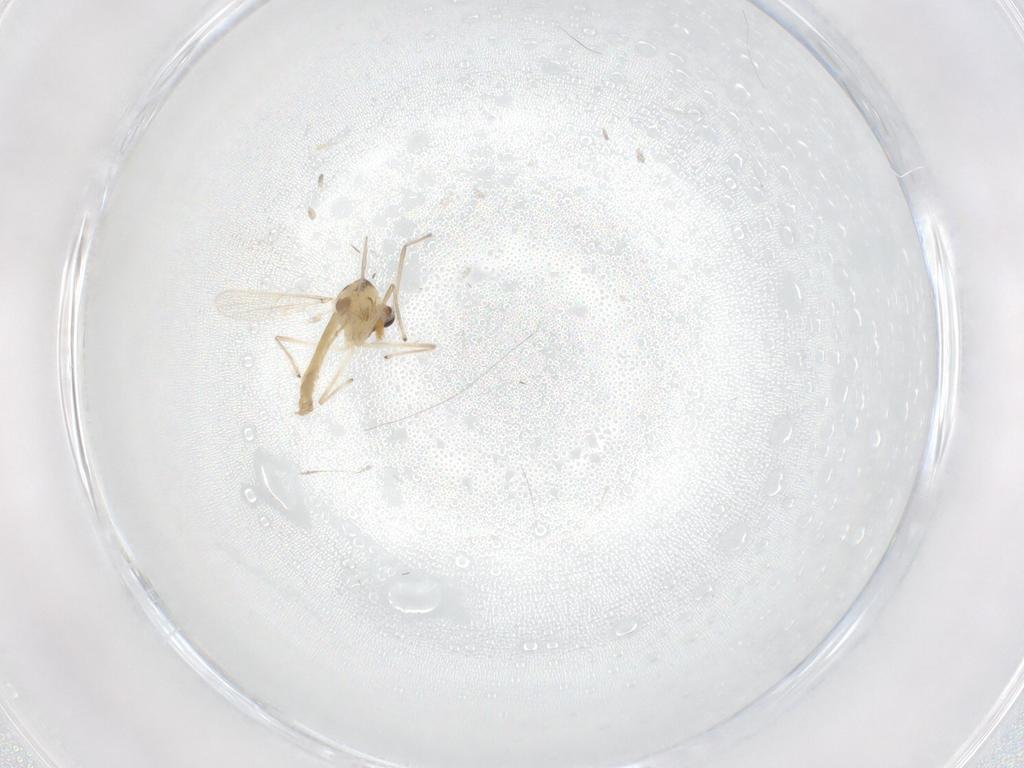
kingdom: Animalia
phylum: Arthropoda
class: Insecta
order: Diptera
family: Chironomidae
